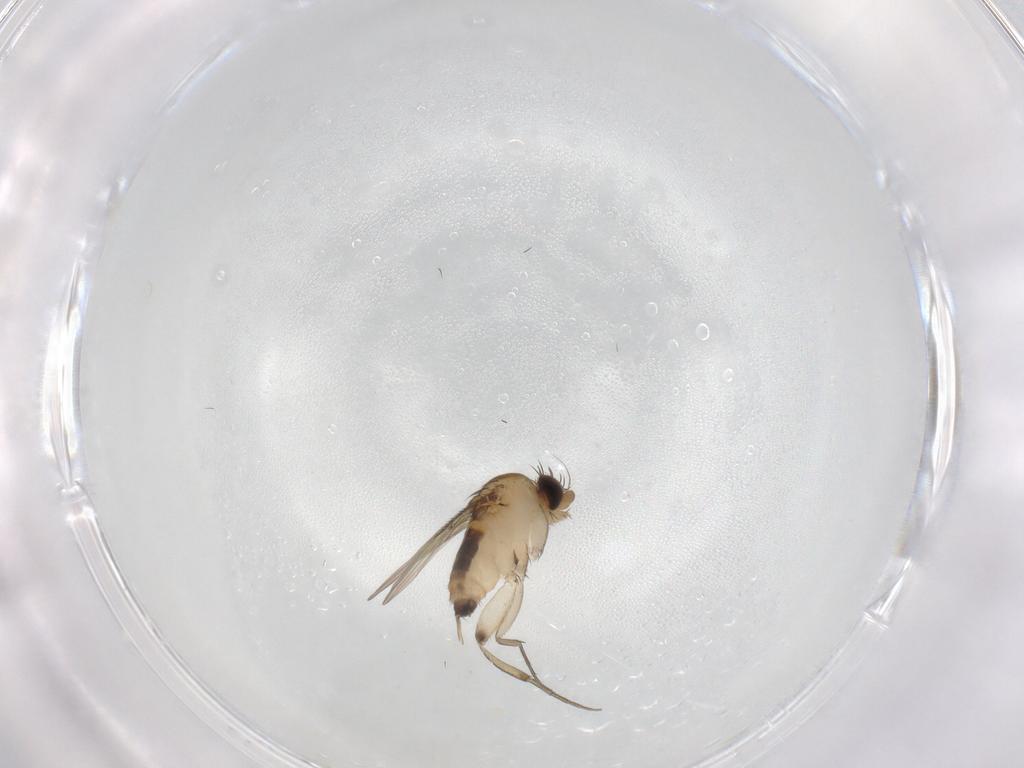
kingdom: Animalia
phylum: Arthropoda
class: Insecta
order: Diptera
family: Phoridae
